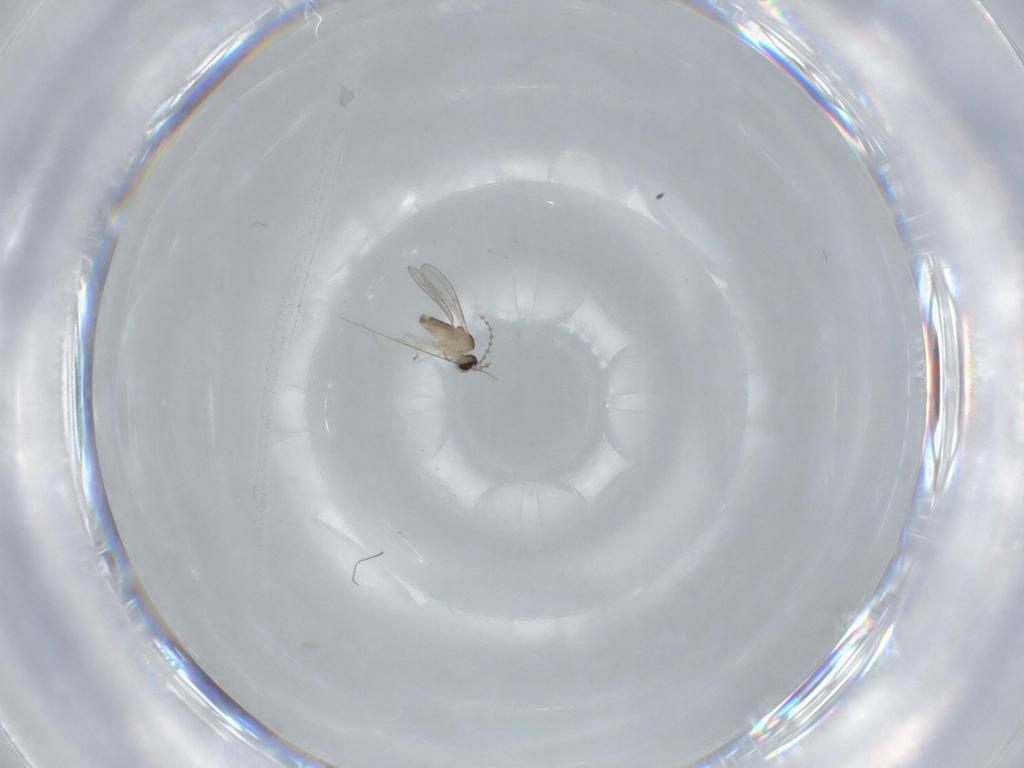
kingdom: Animalia
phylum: Arthropoda
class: Insecta
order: Diptera
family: Cecidomyiidae
